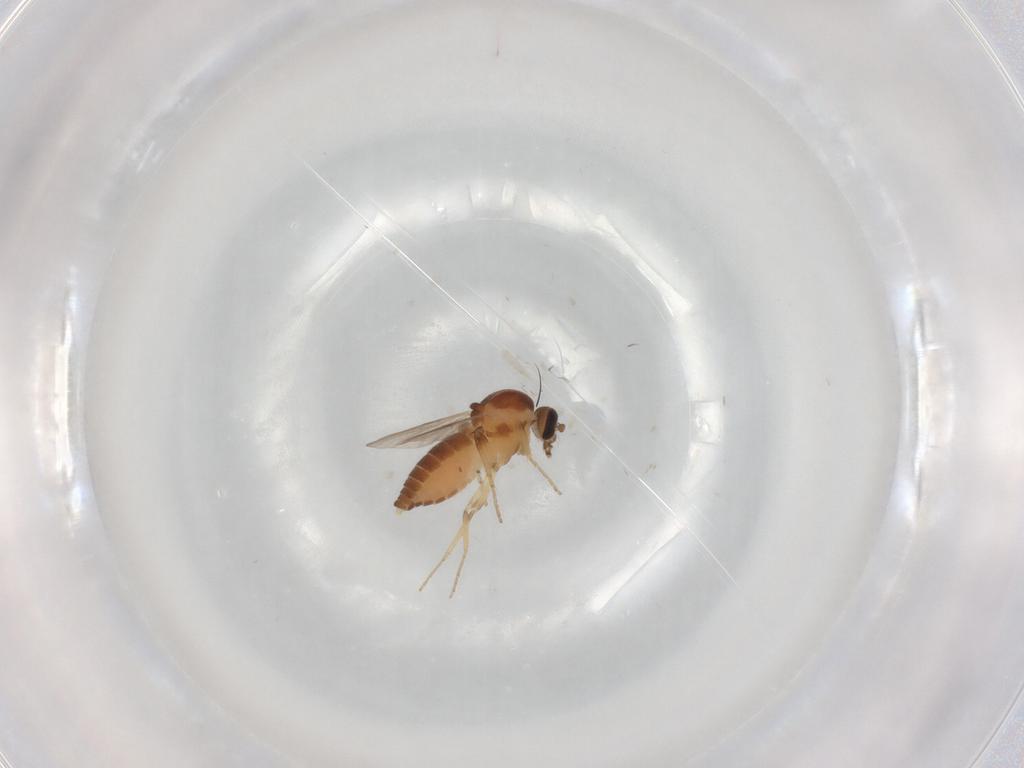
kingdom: Animalia
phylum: Arthropoda
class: Insecta
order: Diptera
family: Ceratopogonidae
